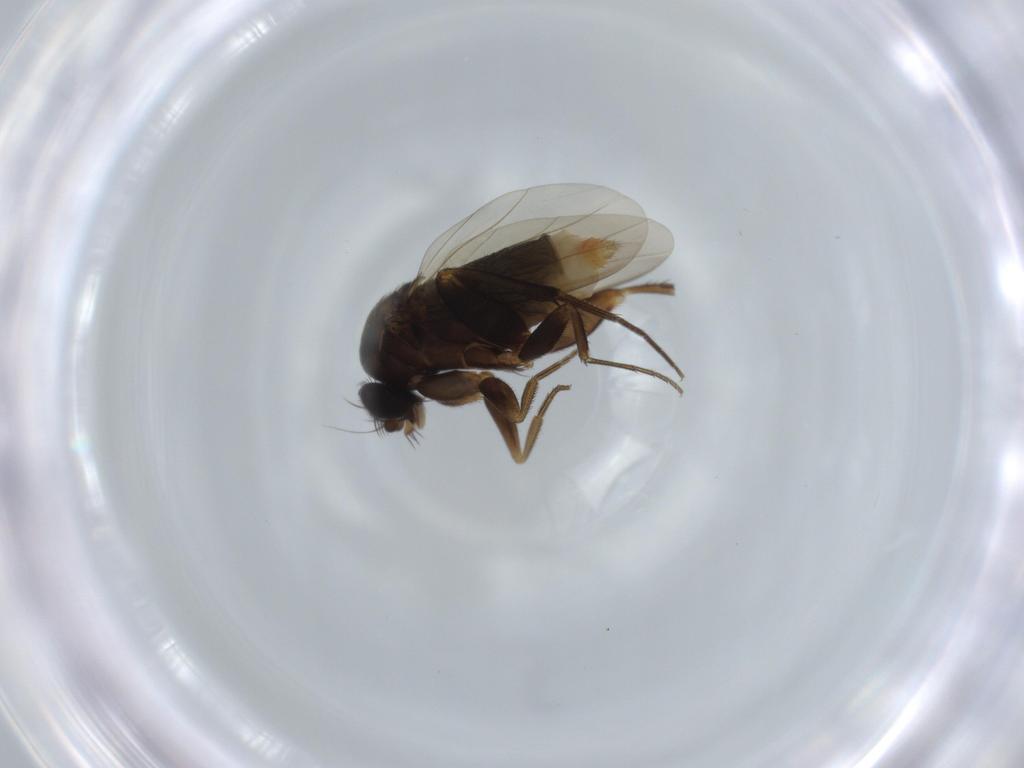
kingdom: Animalia
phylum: Arthropoda
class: Insecta
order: Diptera
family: Phoridae
